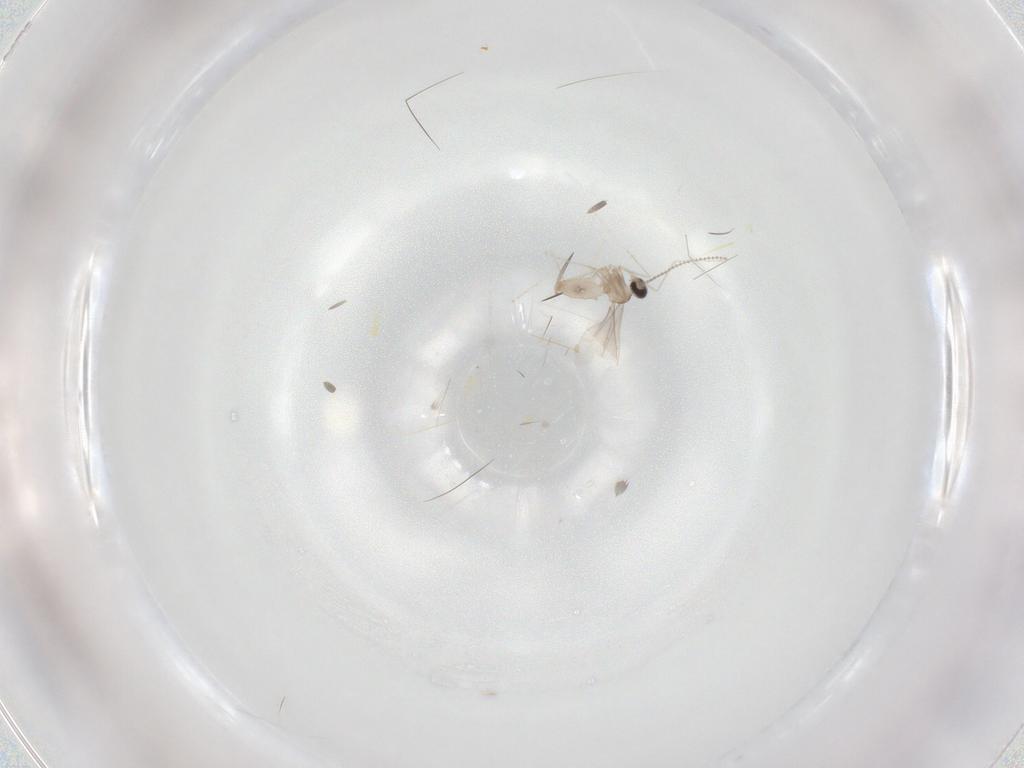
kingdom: Animalia
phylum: Arthropoda
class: Insecta
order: Diptera
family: Cecidomyiidae
